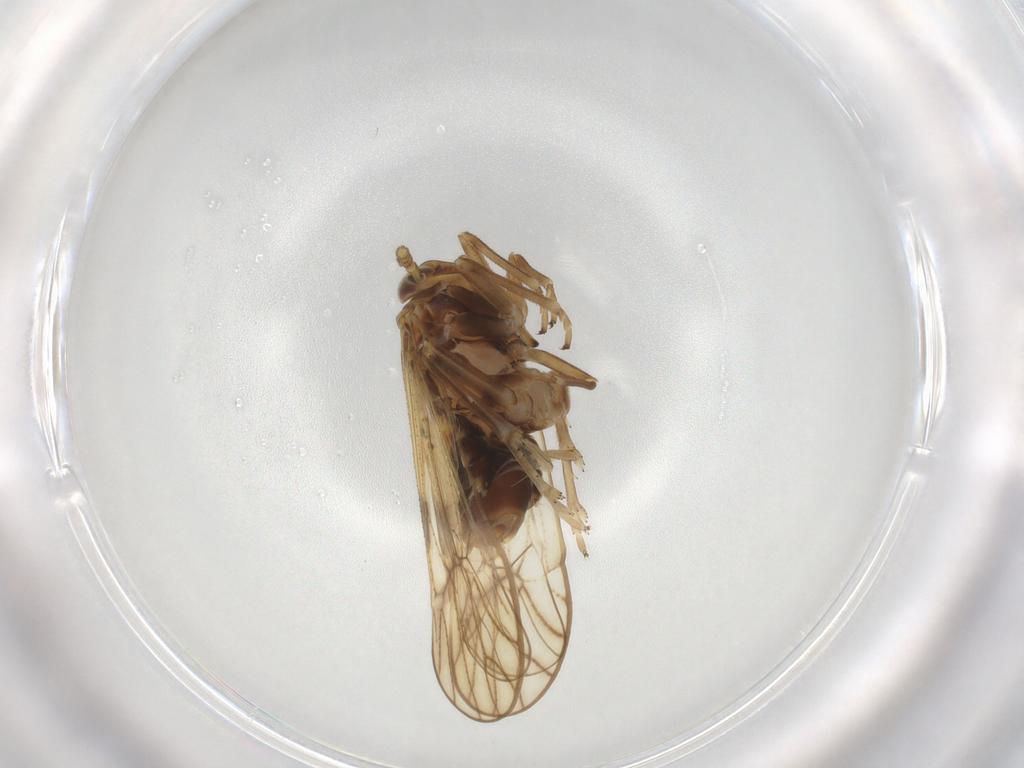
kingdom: Animalia
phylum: Arthropoda
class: Insecta
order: Hemiptera
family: Delphacidae
